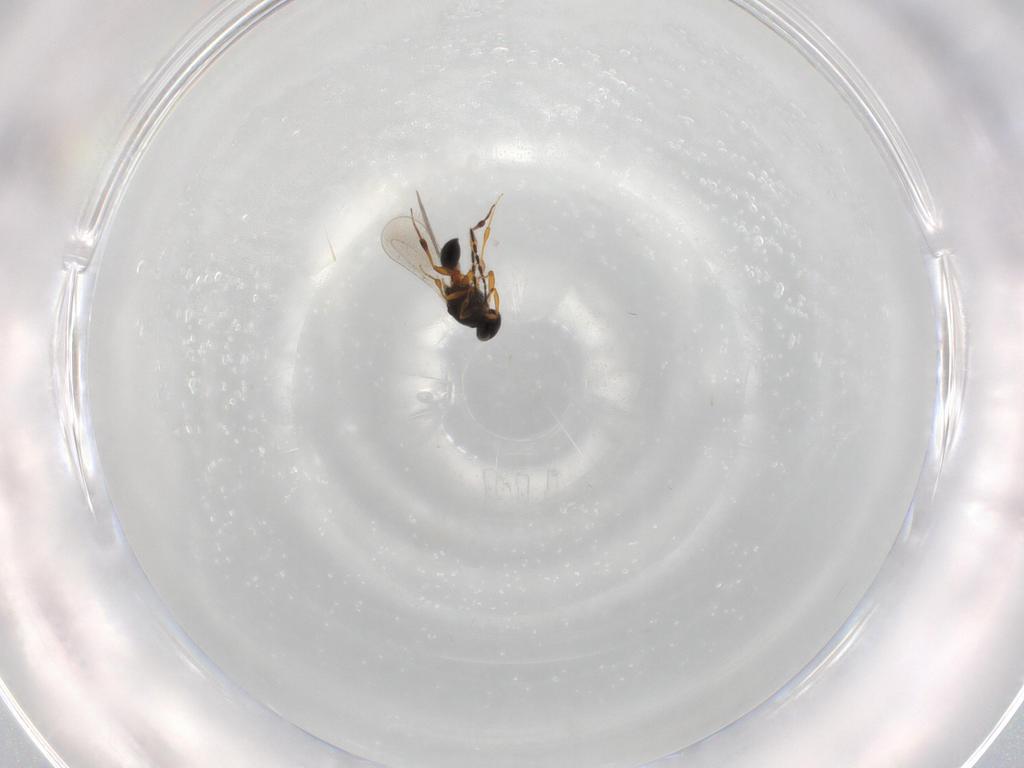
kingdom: Animalia
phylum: Arthropoda
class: Insecta
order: Hymenoptera
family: Platygastridae
